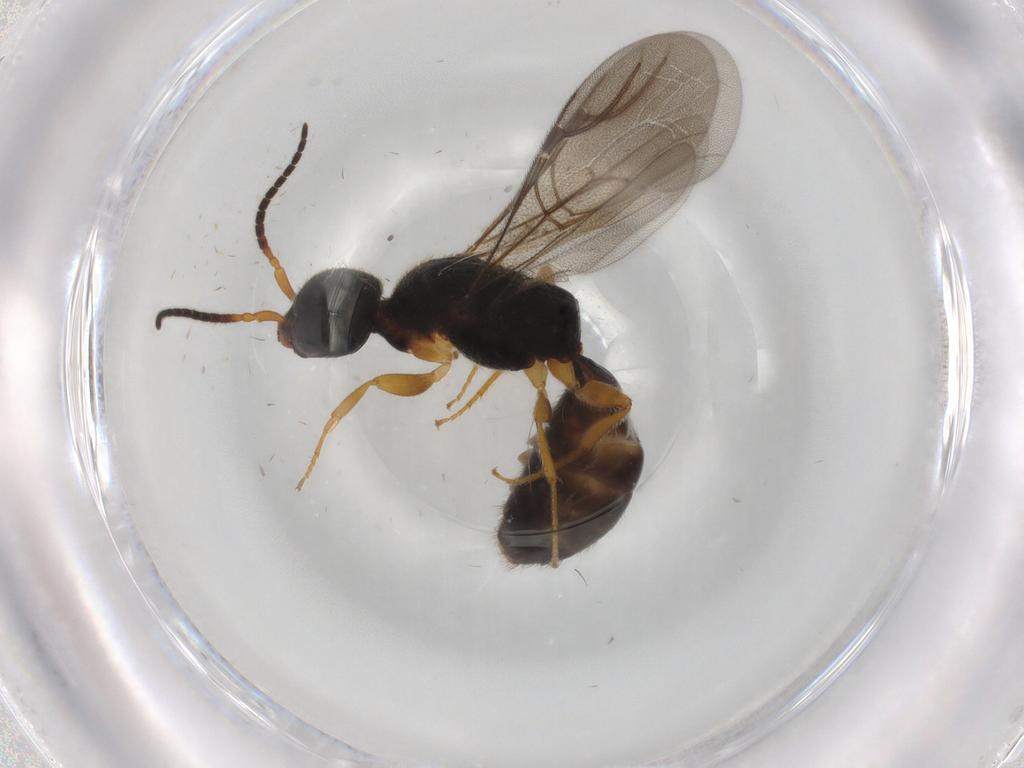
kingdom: Animalia
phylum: Arthropoda
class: Insecta
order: Hymenoptera
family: Bethylidae
